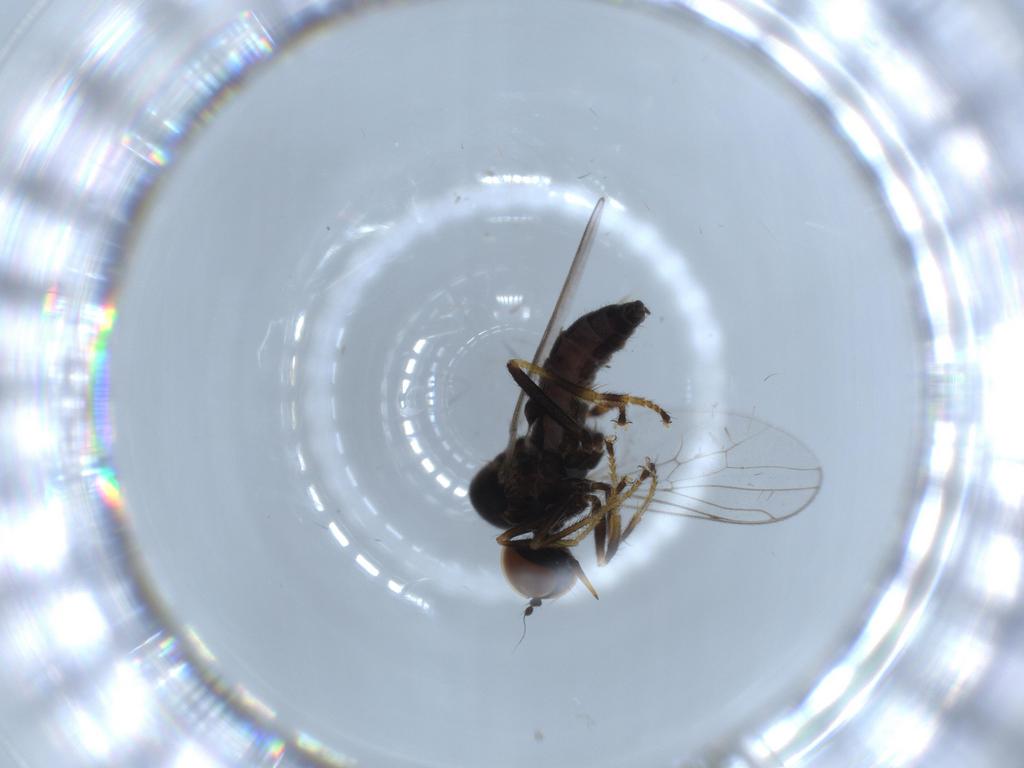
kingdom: Animalia
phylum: Arthropoda
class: Insecta
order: Diptera
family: Hybotidae
